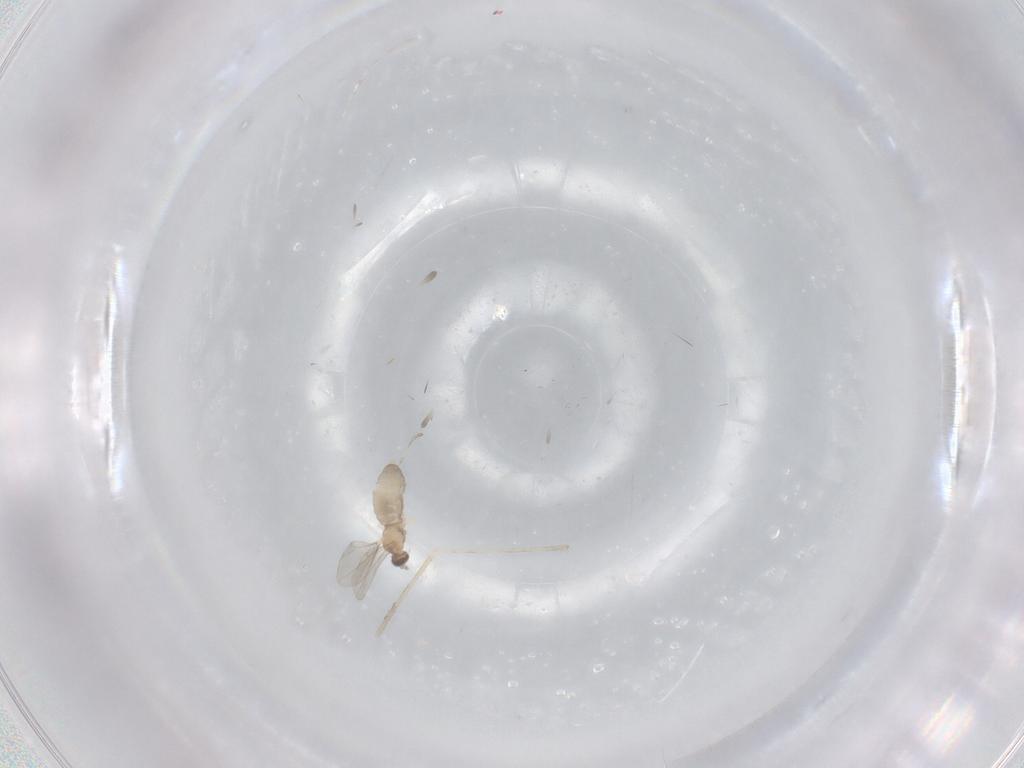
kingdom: Animalia
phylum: Arthropoda
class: Insecta
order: Diptera
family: Cecidomyiidae
